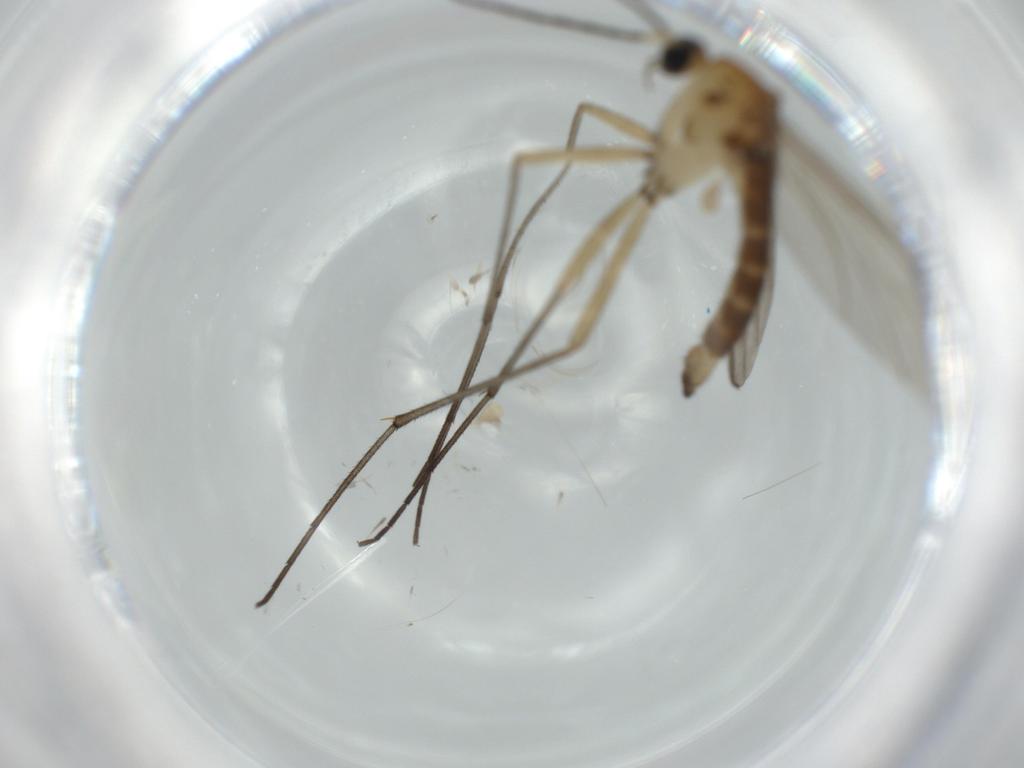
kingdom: Animalia
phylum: Arthropoda
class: Insecta
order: Diptera
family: Sciaridae
